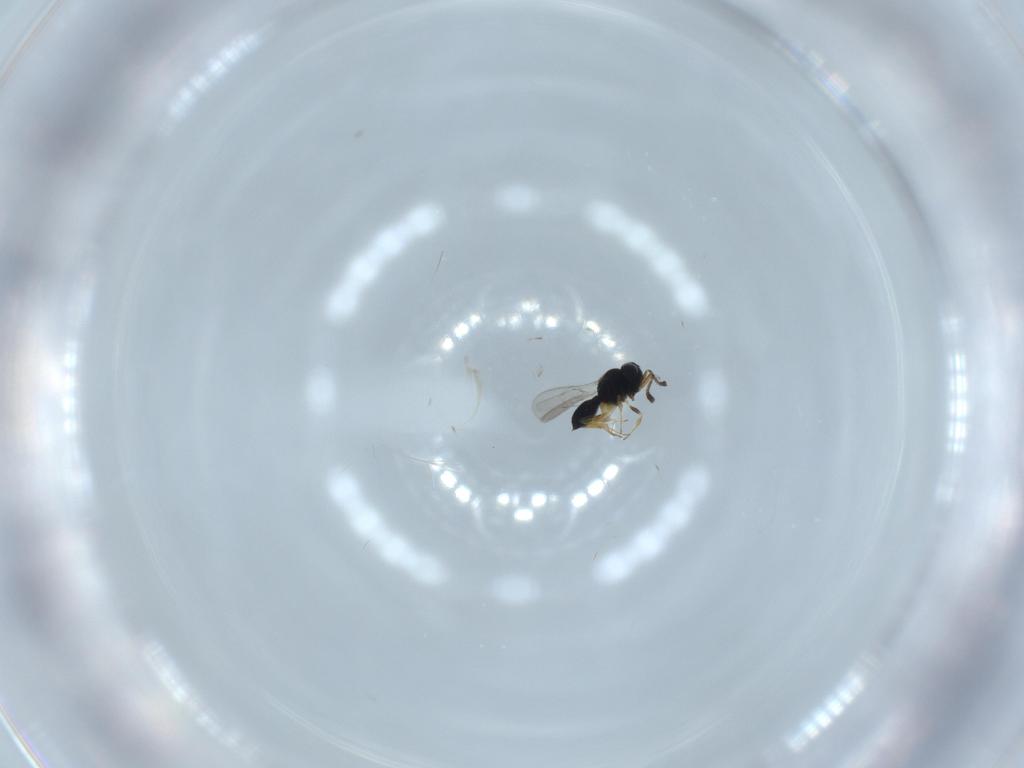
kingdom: Animalia
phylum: Arthropoda
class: Insecta
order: Hymenoptera
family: Scelionidae
